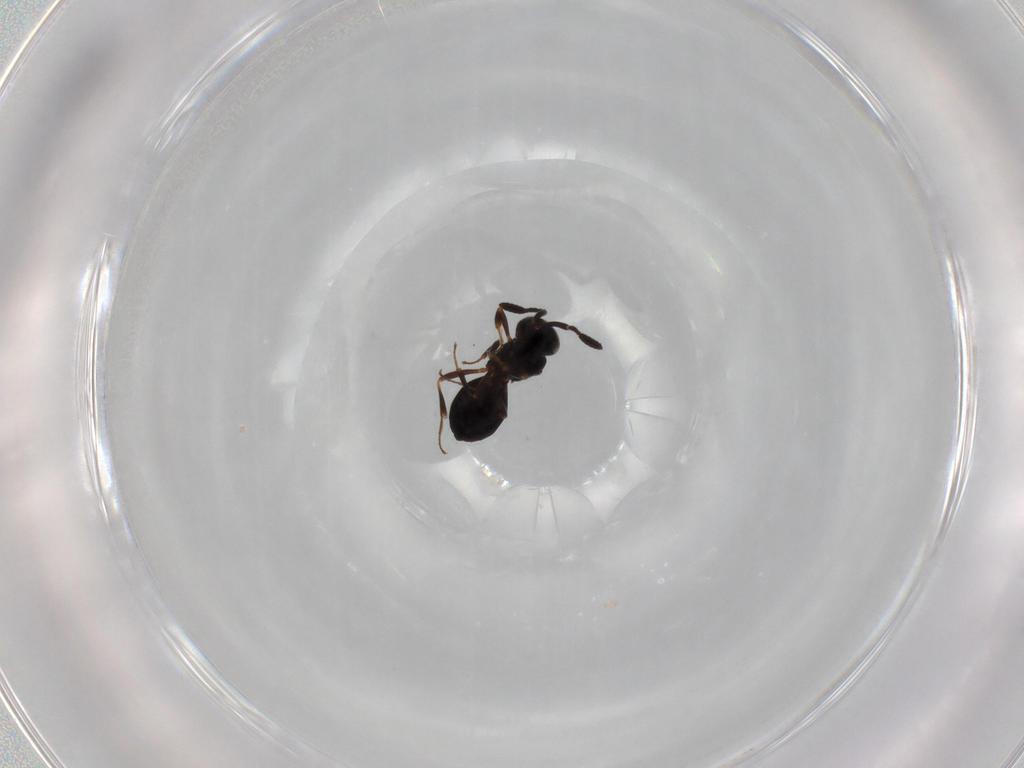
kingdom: Animalia
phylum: Arthropoda
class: Insecta
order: Hymenoptera
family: Scelionidae
